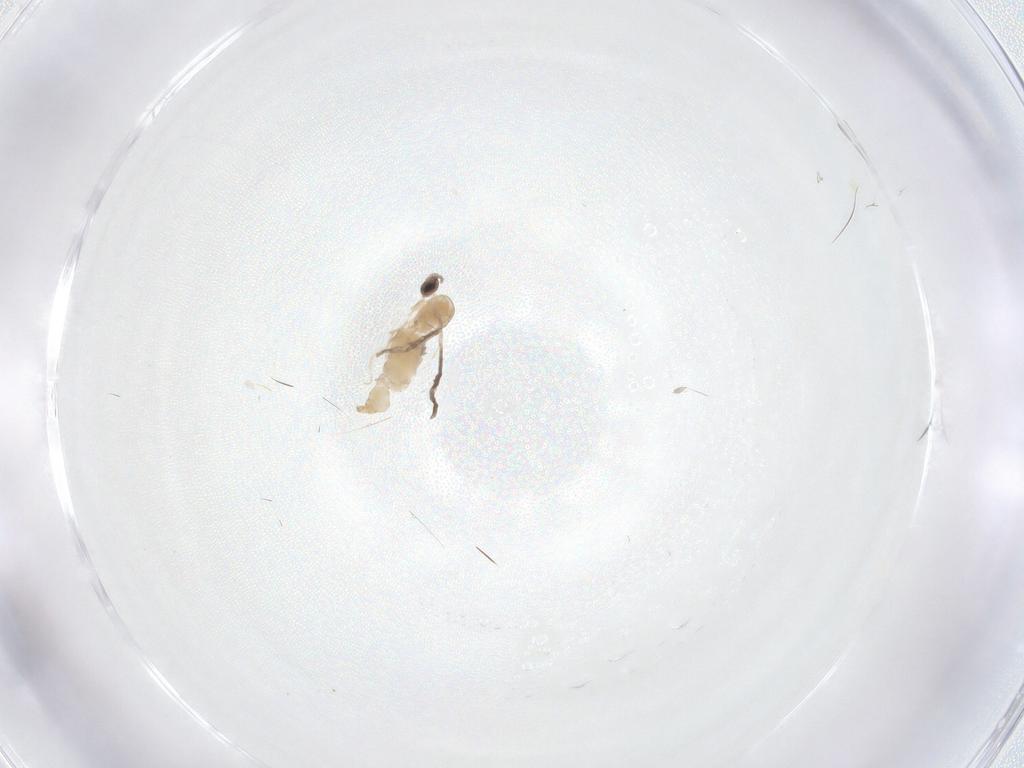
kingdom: Animalia
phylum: Arthropoda
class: Insecta
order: Diptera
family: Cecidomyiidae
